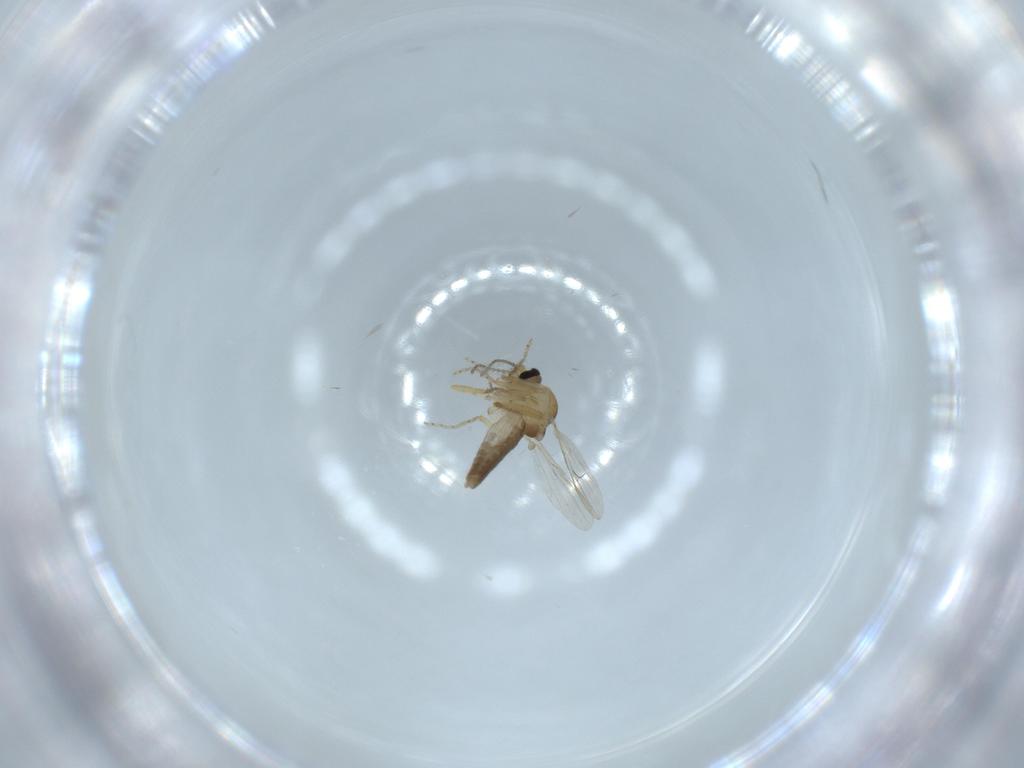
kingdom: Animalia
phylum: Arthropoda
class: Insecta
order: Diptera
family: Ceratopogonidae
